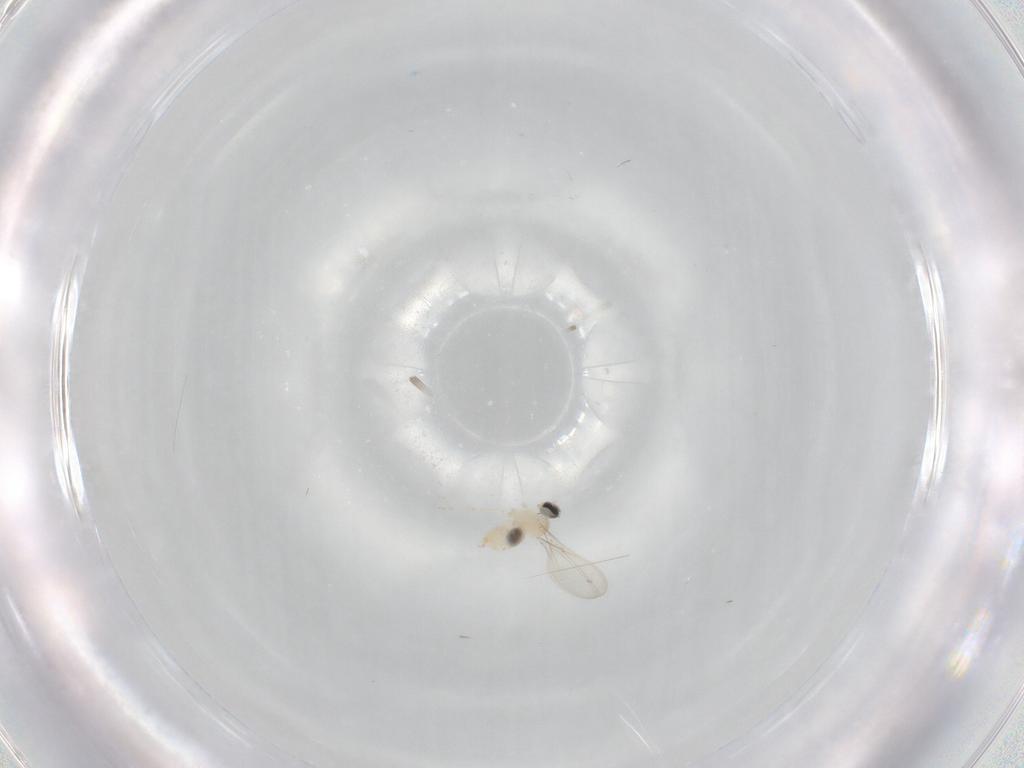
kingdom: Animalia
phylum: Arthropoda
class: Insecta
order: Diptera
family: Cecidomyiidae
